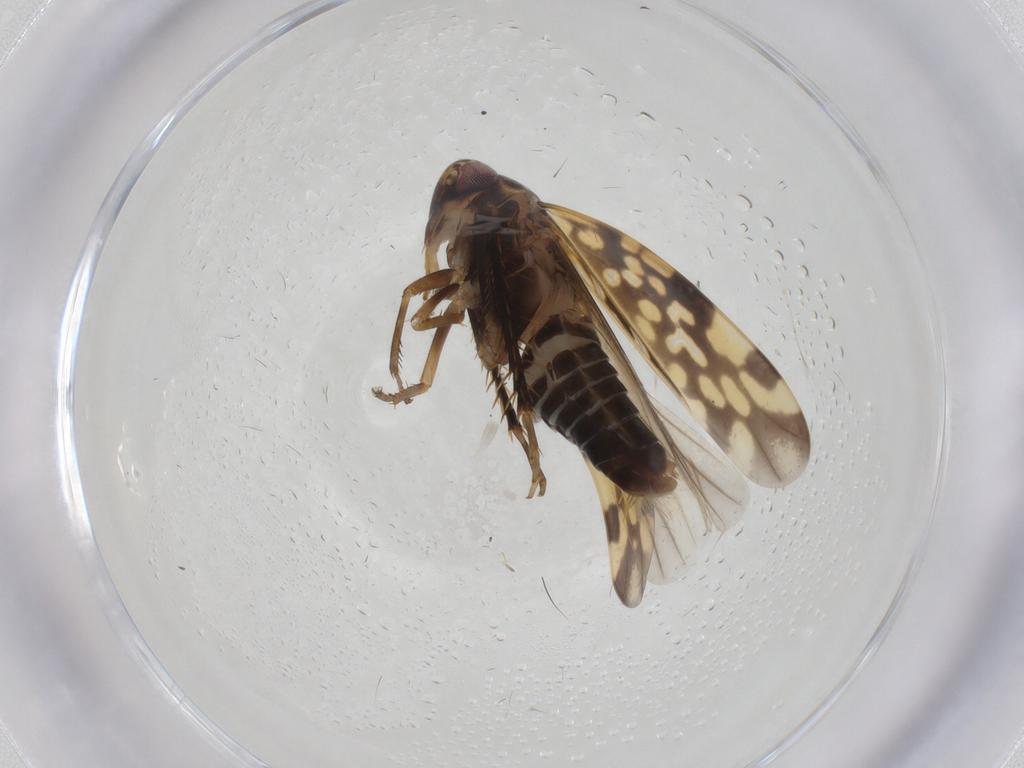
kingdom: Animalia
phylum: Arthropoda
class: Insecta
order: Hemiptera
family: Cicadellidae
